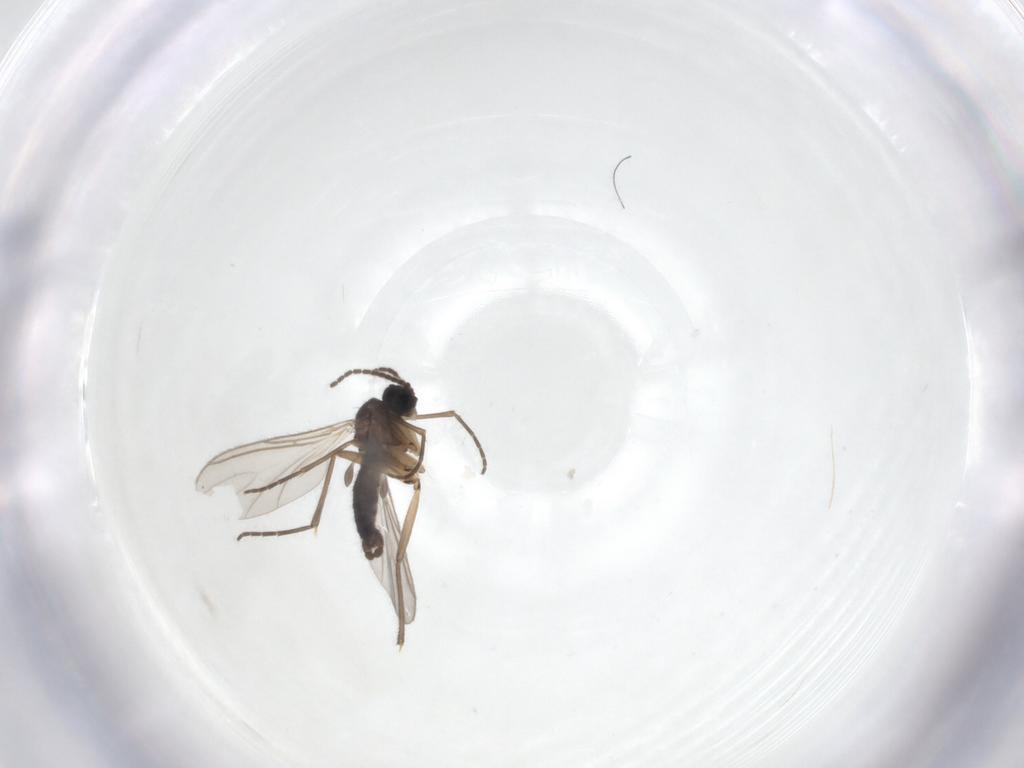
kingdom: Animalia
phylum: Arthropoda
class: Insecta
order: Diptera
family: Sciaridae
